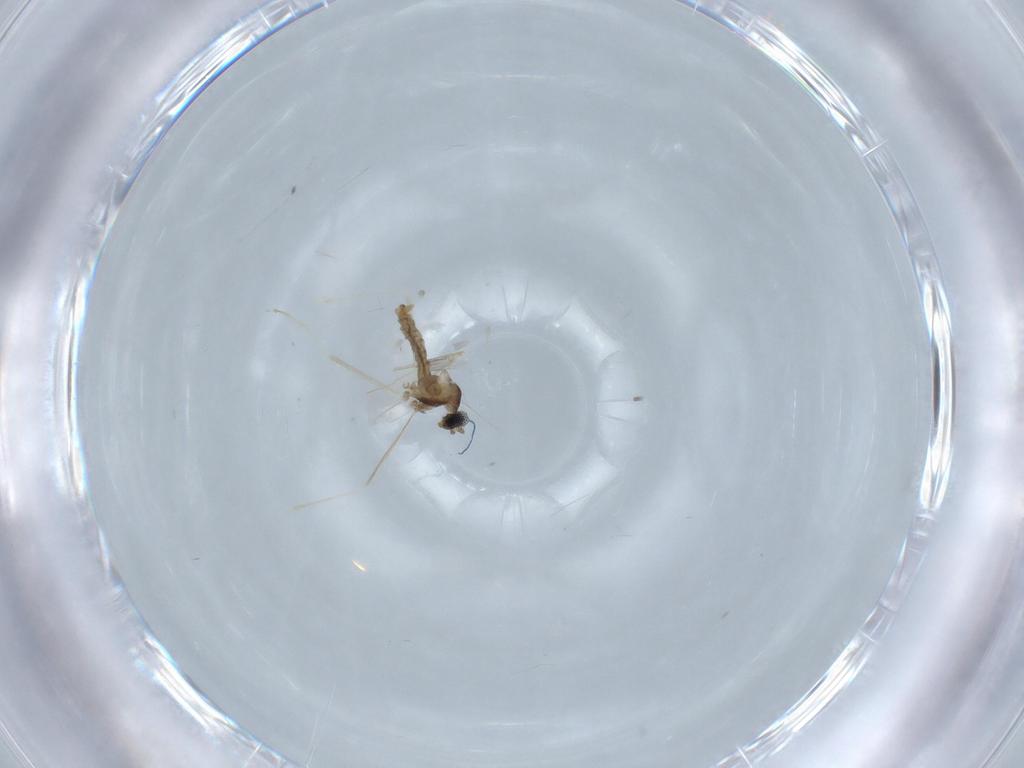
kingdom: Animalia
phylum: Arthropoda
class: Insecta
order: Diptera
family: Cecidomyiidae
